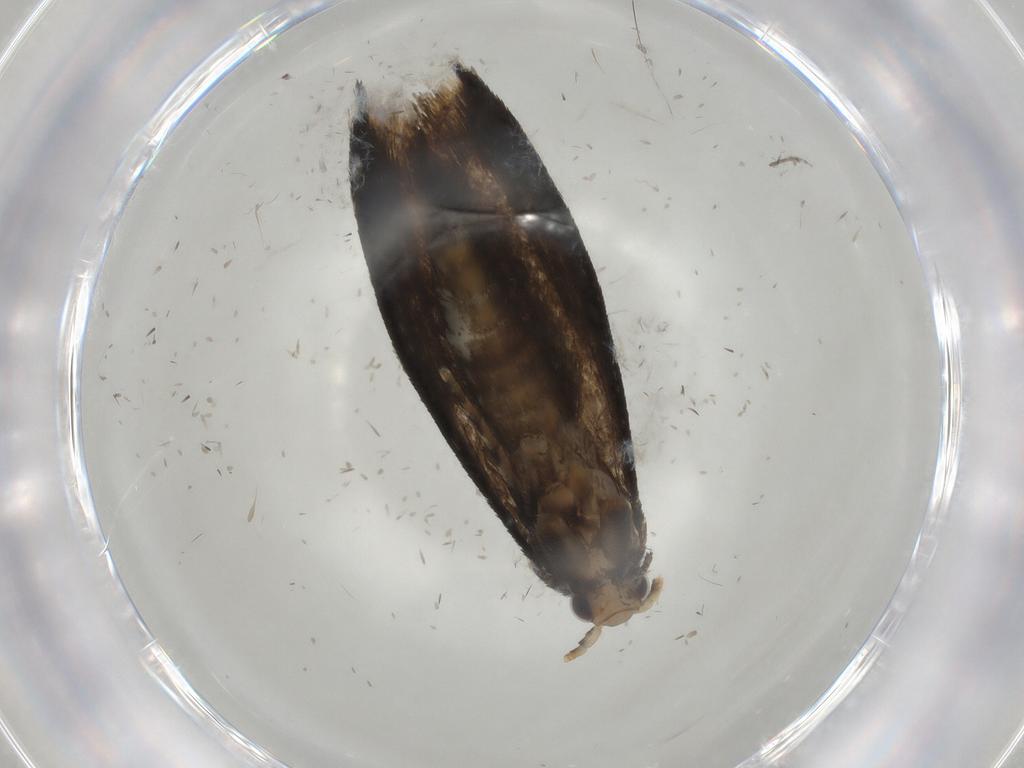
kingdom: Animalia
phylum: Arthropoda
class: Insecta
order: Lepidoptera
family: Tineidae
